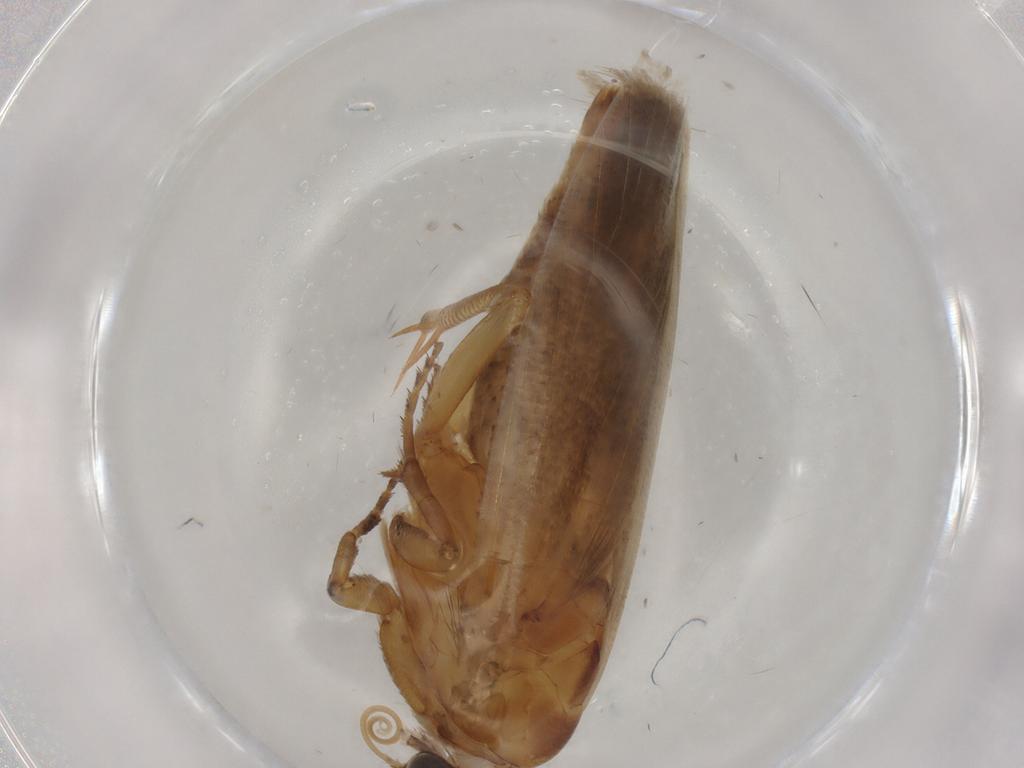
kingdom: Animalia
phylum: Arthropoda
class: Insecta
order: Lepidoptera
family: Gelechiidae
